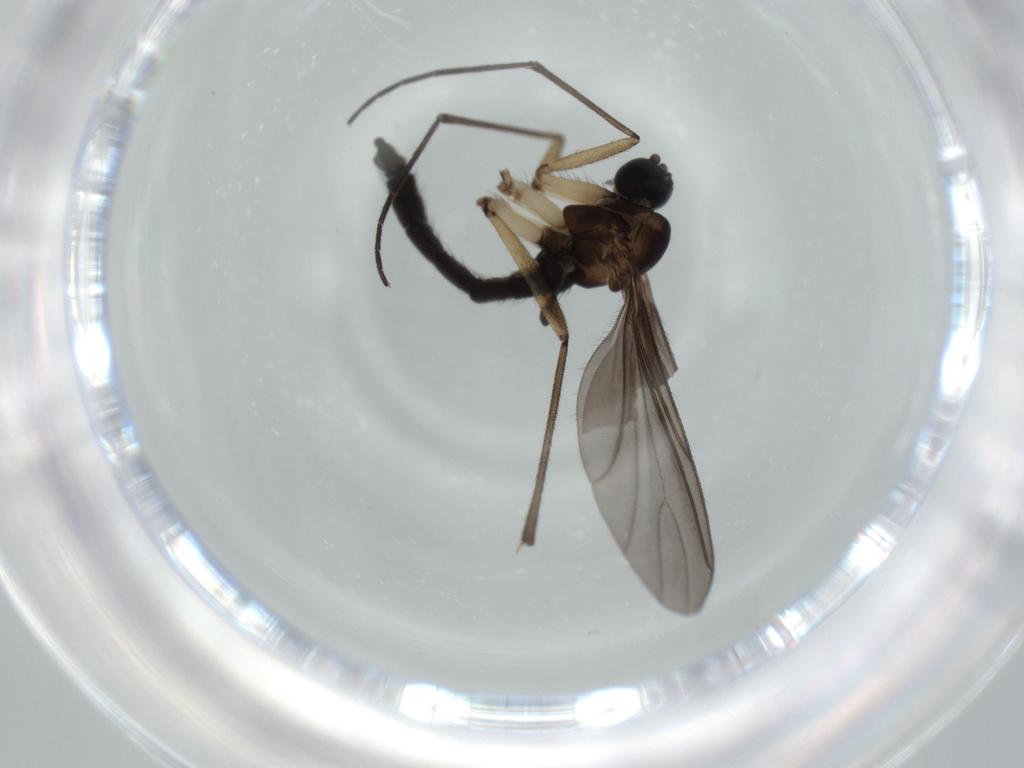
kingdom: Animalia
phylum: Arthropoda
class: Insecta
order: Diptera
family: Sciaridae
